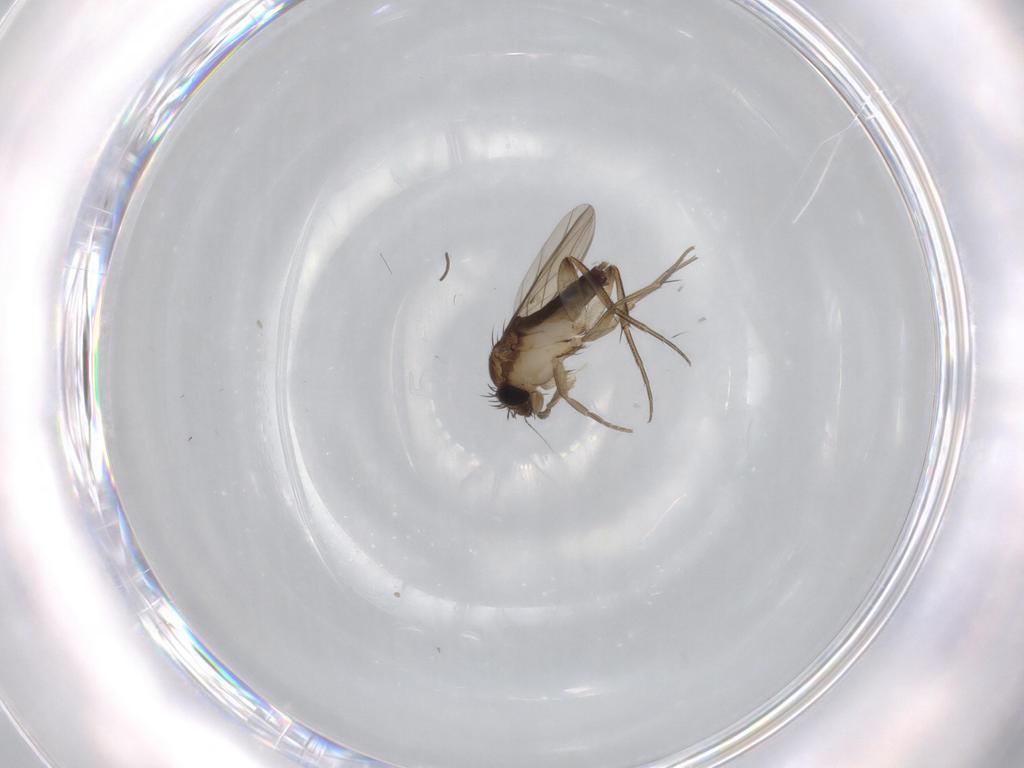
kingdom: Animalia
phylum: Arthropoda
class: Insecta
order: Diptera
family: Phoridae
